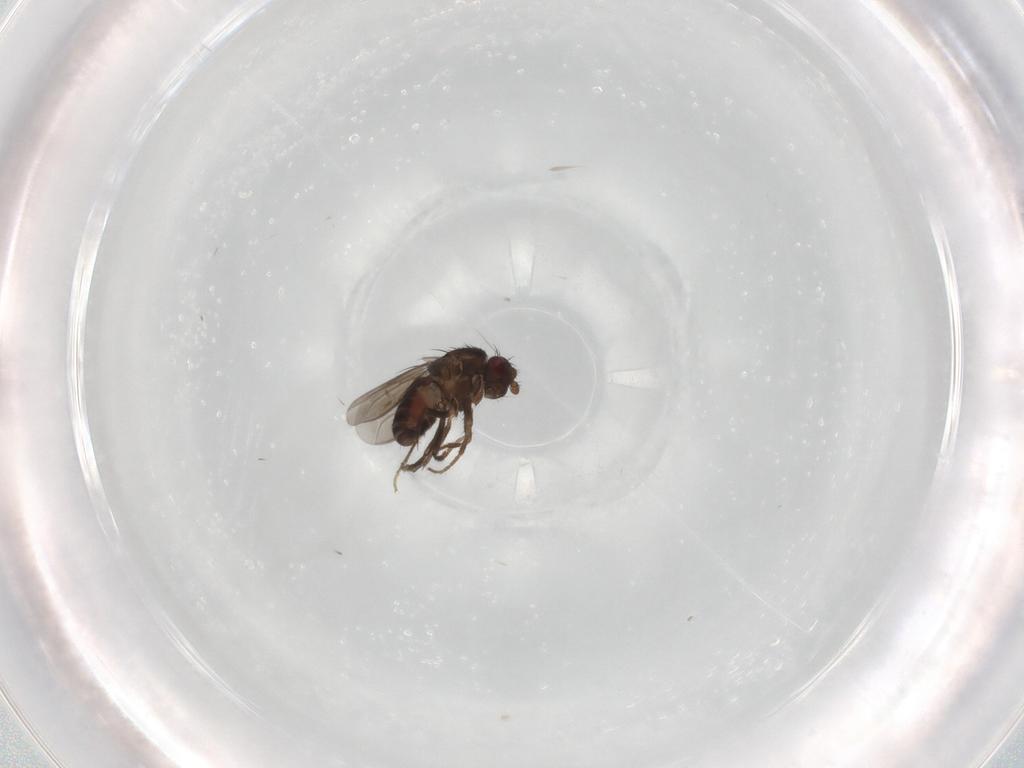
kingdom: Animalia
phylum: Arthropoda
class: Insecta
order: Diptera
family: Sphaeroceridae
